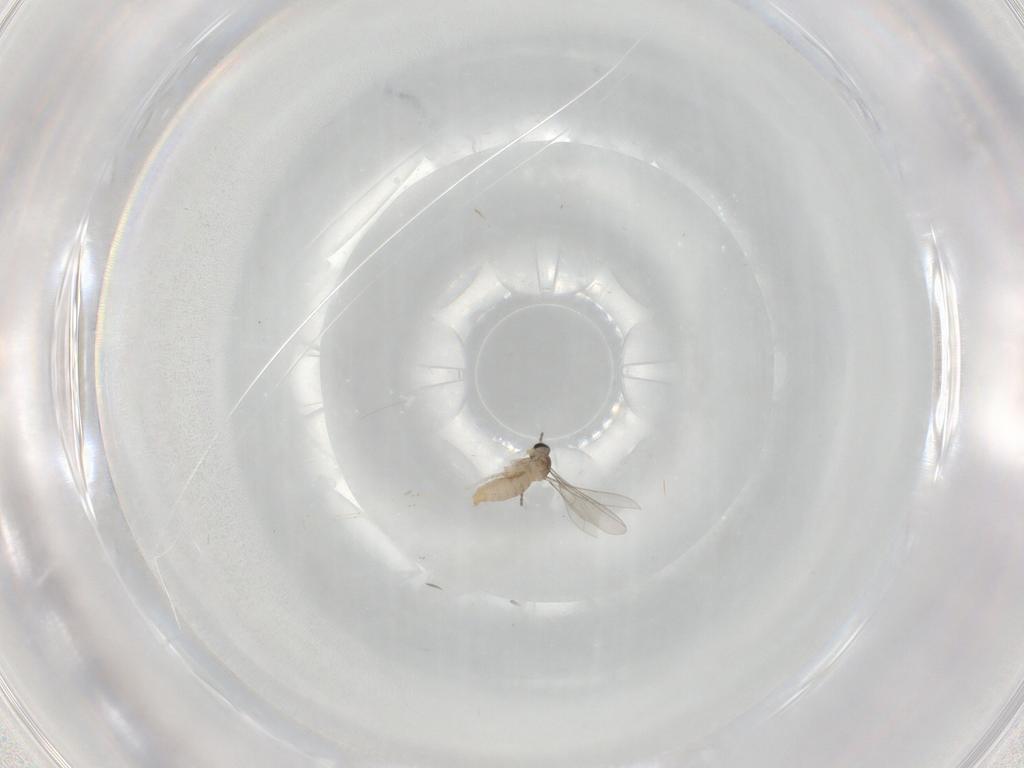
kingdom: Animalia
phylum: Arthropoda
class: Insecta
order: Diptera
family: Cecidomyiidae
